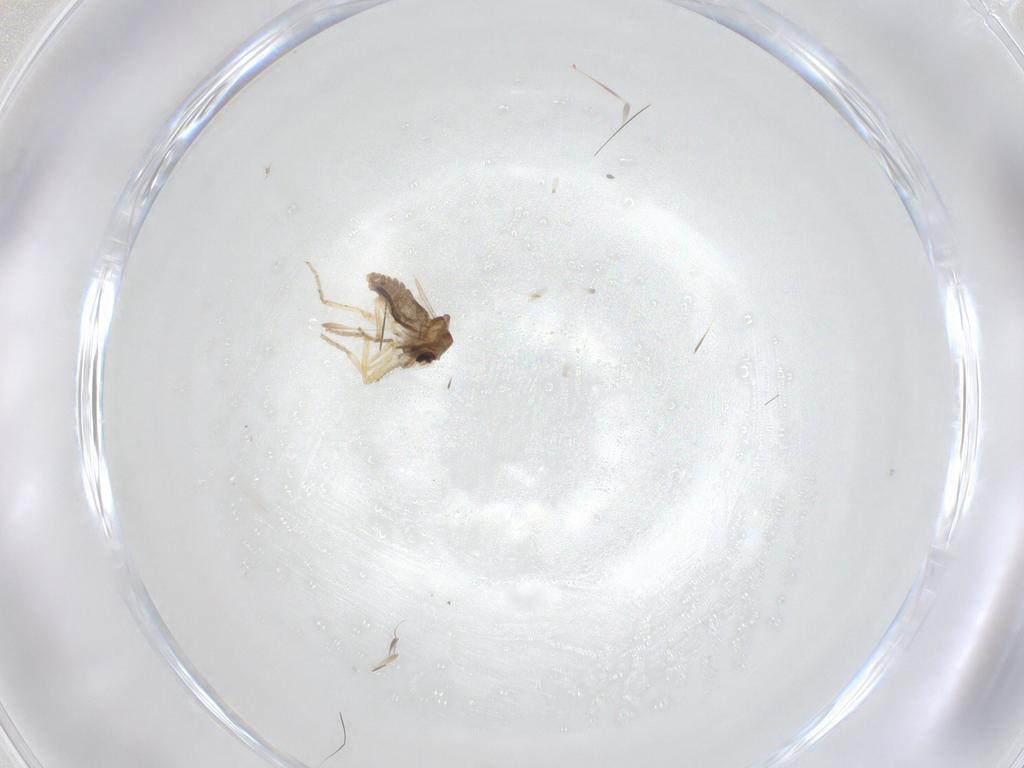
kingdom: Animalia
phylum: Arthropoda
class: Insecta
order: Diptera
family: Ceratopogonidae
